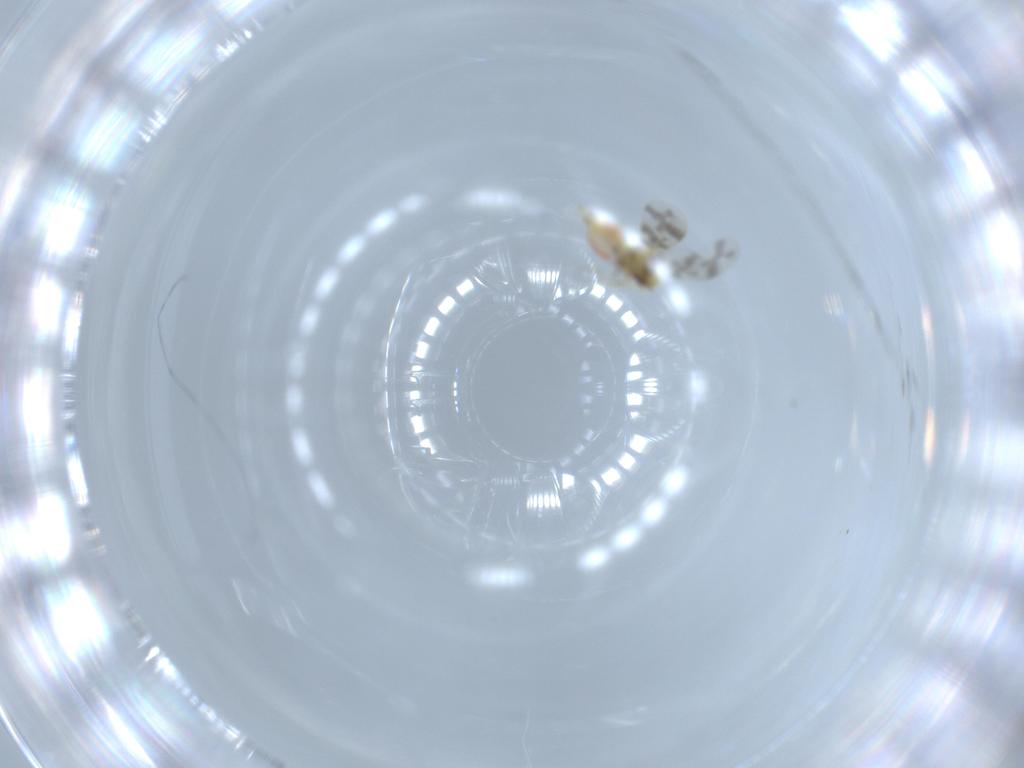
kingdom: Animalia
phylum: Arthropoda
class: Insecta
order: Hemiptera
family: Aleyrodidae
